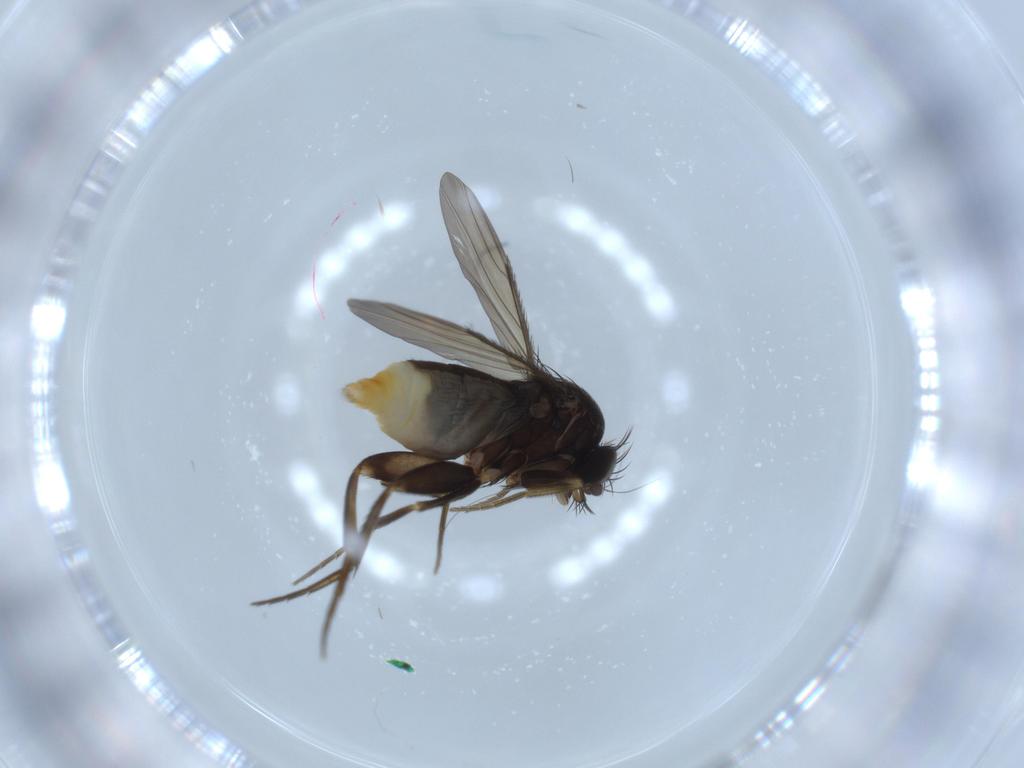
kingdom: Animalia
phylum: Arthropoda
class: Insecta
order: Diptera
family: Phoridae
